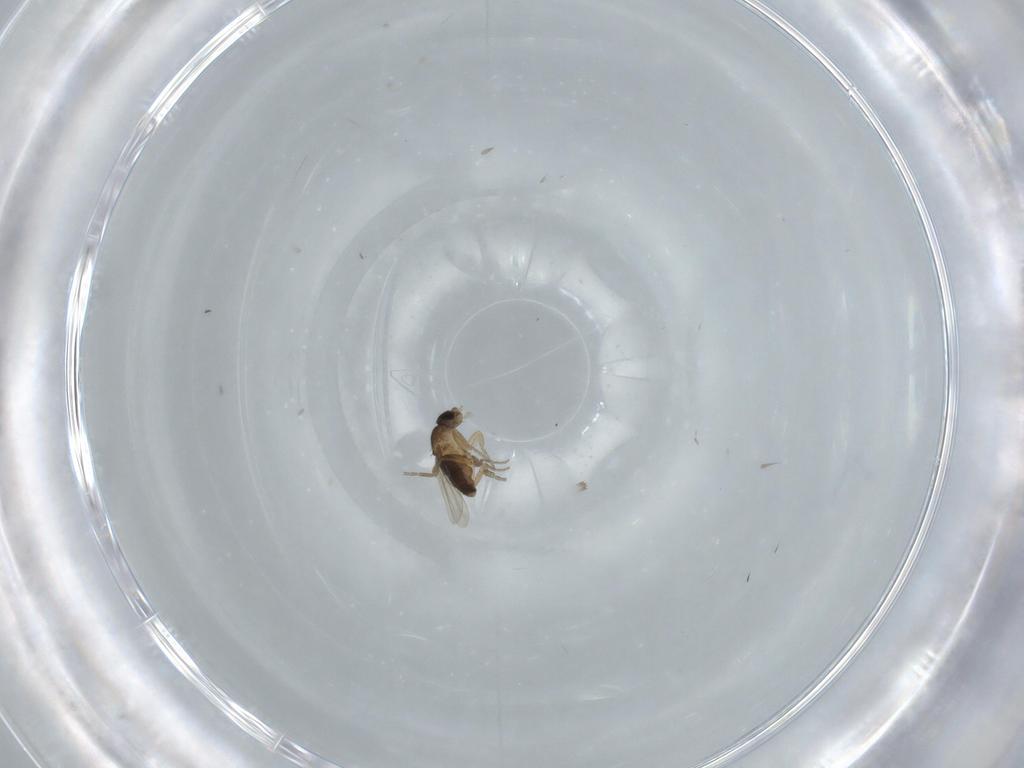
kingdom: Animalia
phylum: Arthropoda
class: Insecta
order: Diptera
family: Phoridae
